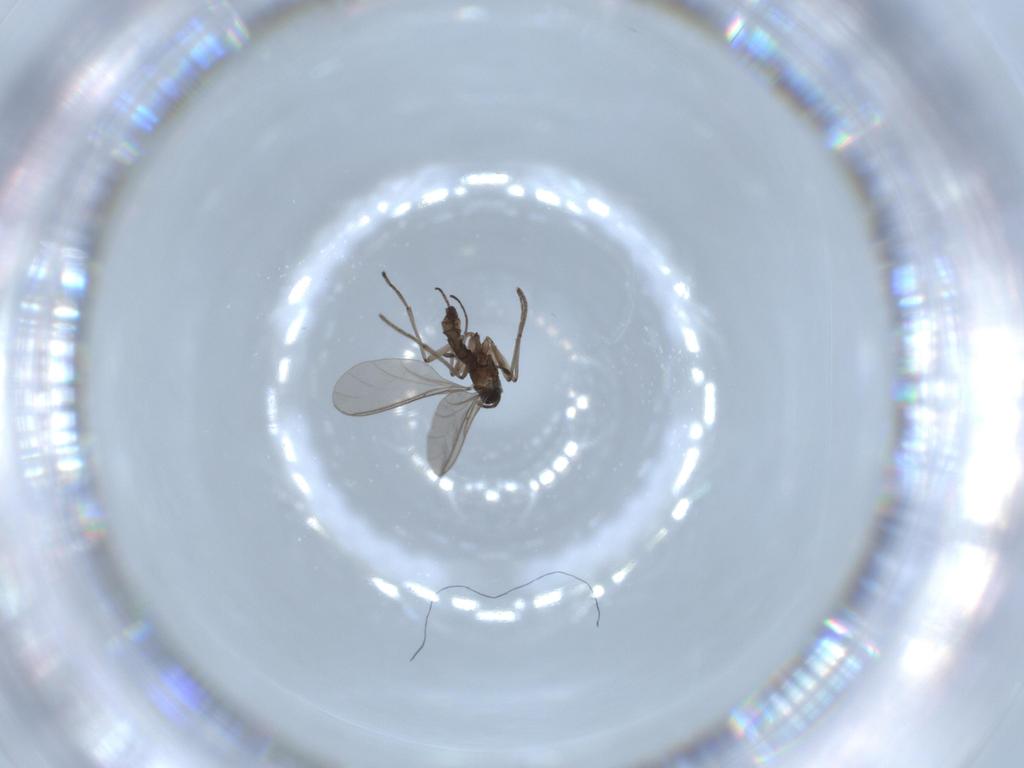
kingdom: Animalia
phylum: Arthropoda
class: Insecta
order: Diptera
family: Sciaridae
